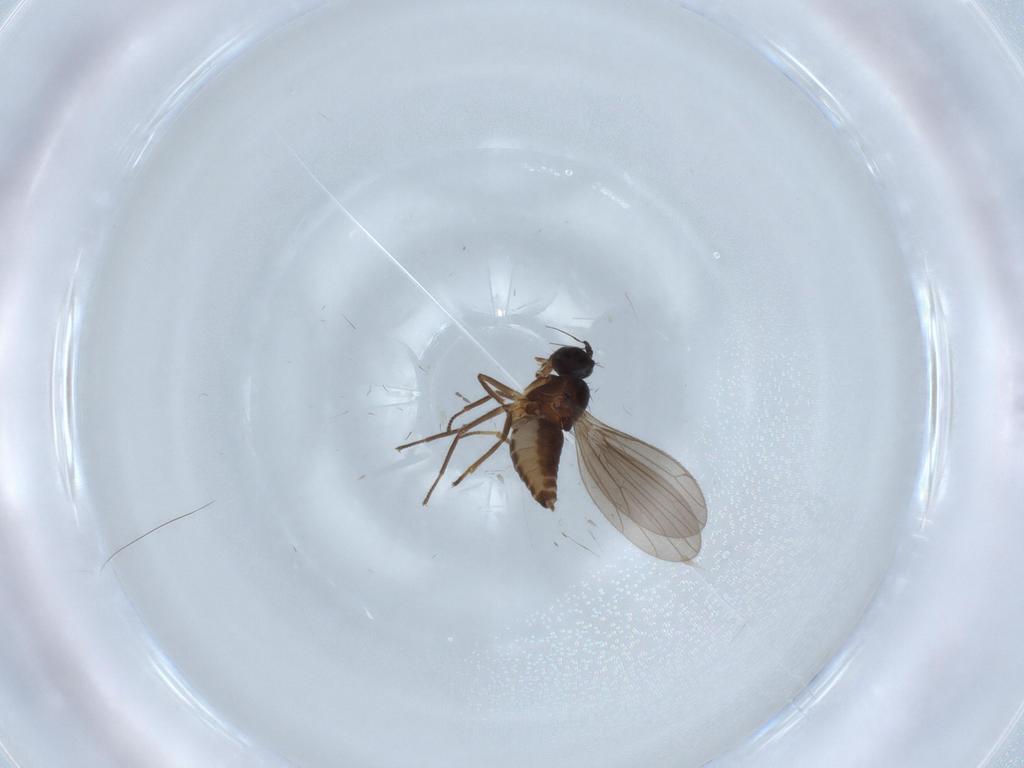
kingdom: Animalia
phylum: Arthropoda
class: Insecta
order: Diptera
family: Empididae
